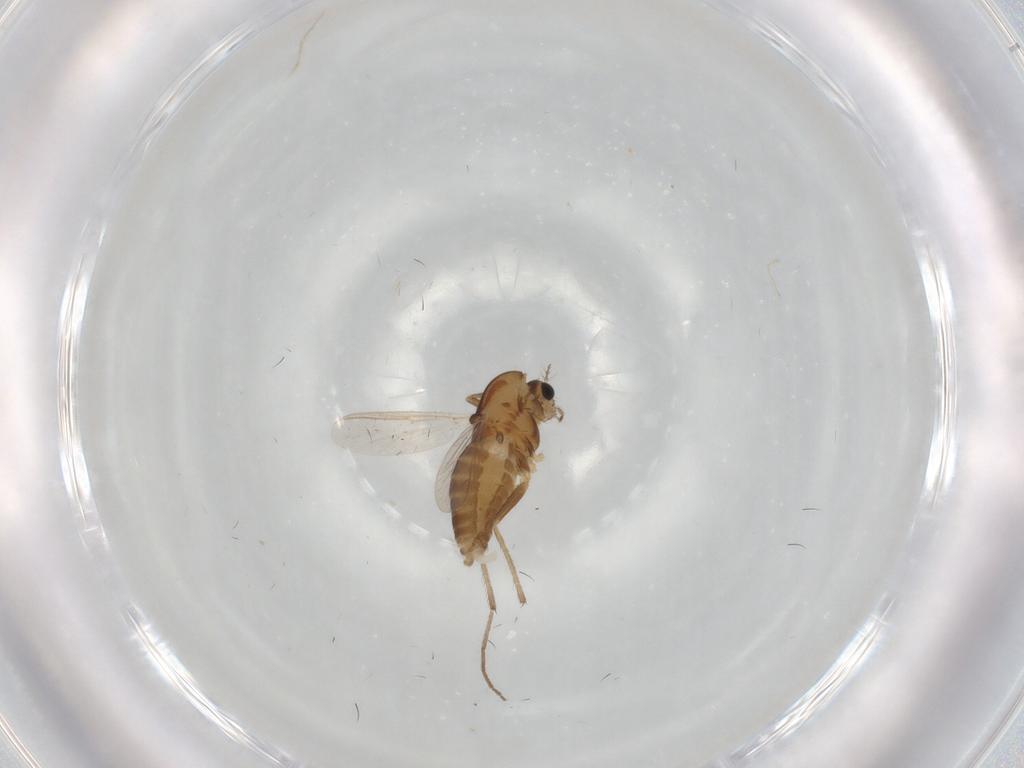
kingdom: Animalia
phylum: Arthropoda
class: Insecta
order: Diptera
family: Chironomidae
